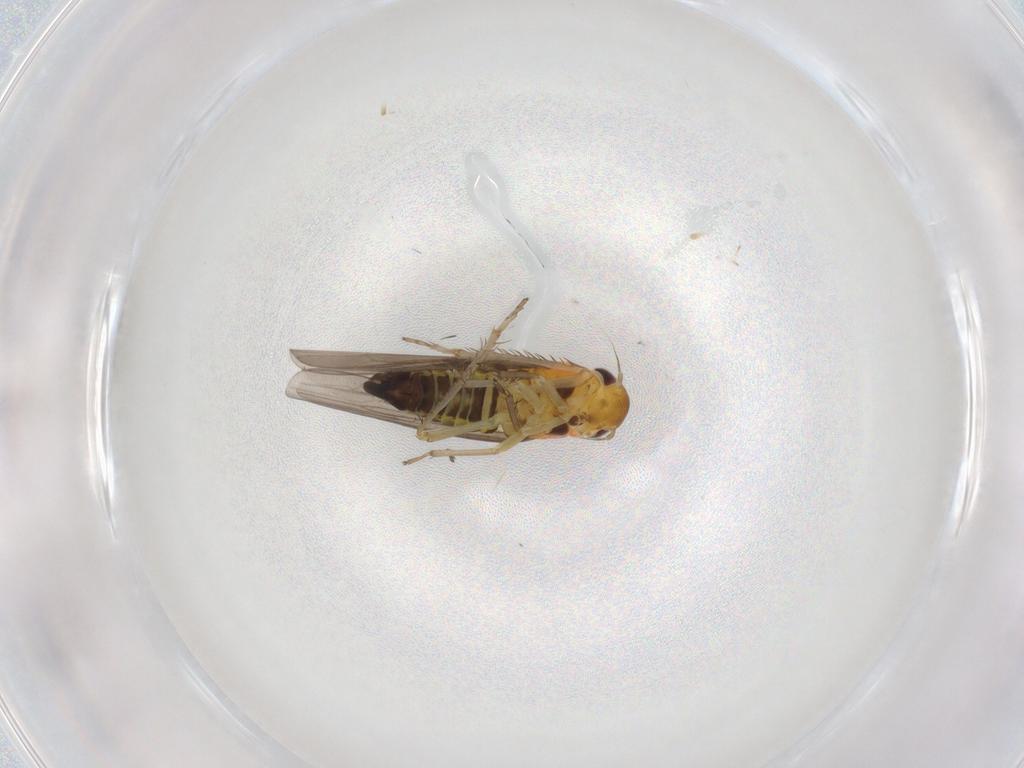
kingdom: Animalia
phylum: Arthropoda
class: Insecta
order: Hemiptera
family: Cicadellidae
